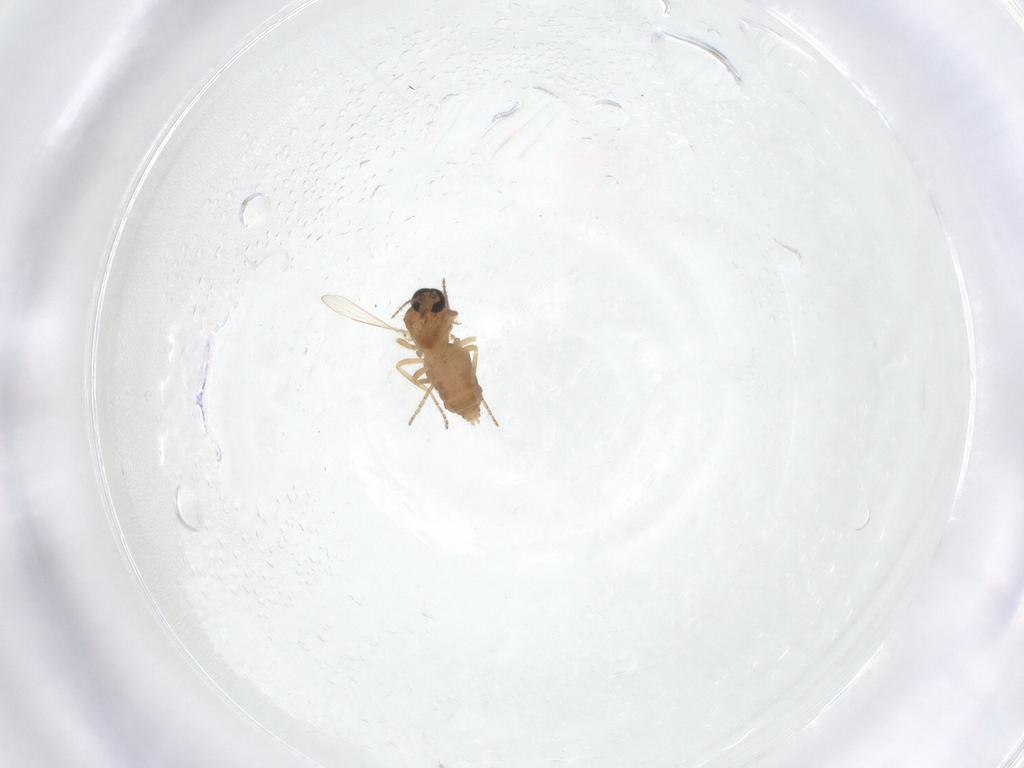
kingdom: Animalia
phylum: Arthropoda
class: Insecta
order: Diptera
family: Ceratopogonidae
